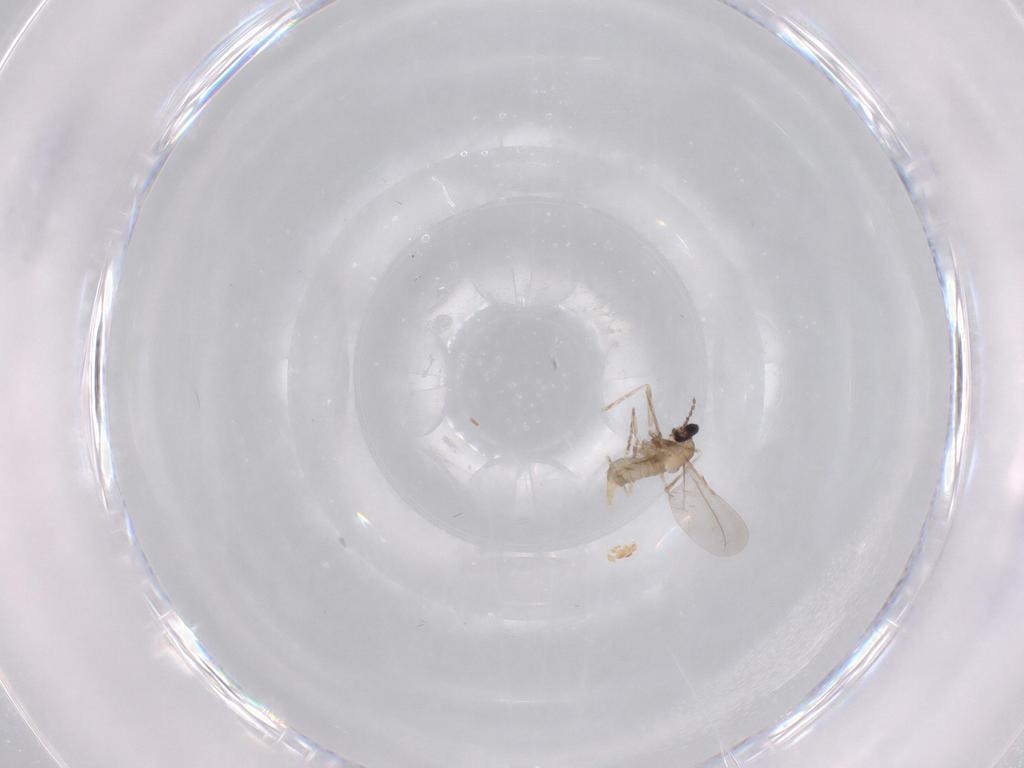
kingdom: Animalia
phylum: Arthropoda
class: Insecta
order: Diptera
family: Cecidomyiidae
